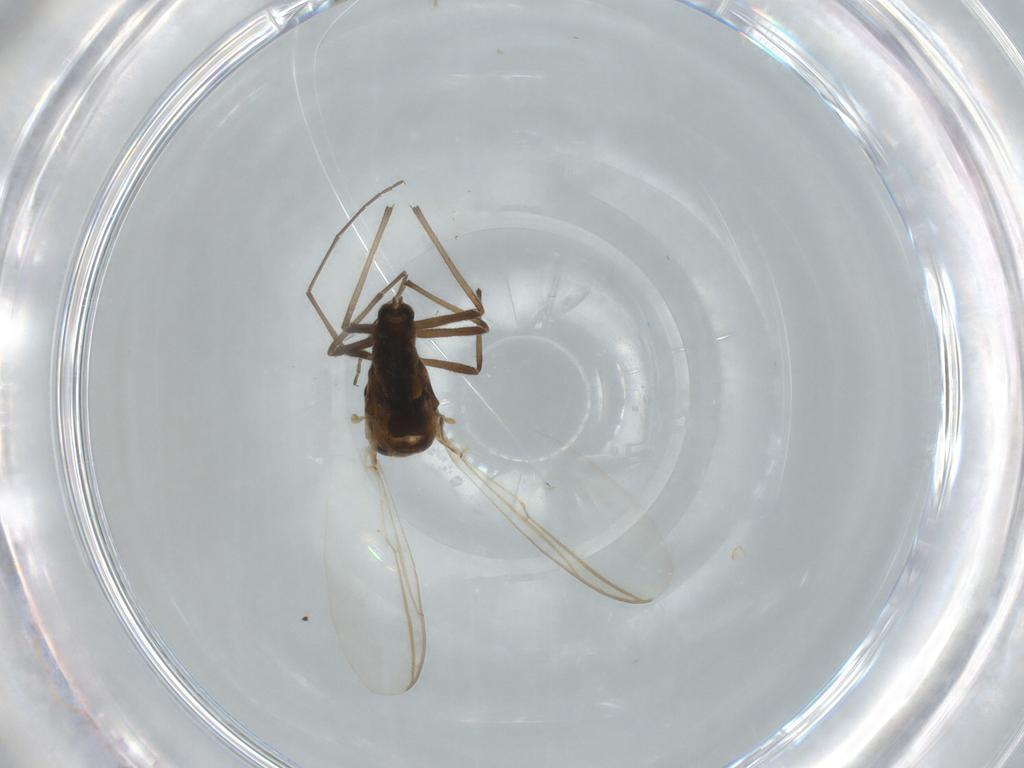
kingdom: Animalia
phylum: Arthropoda
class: Insecta
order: Diptera
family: Sciaridae
